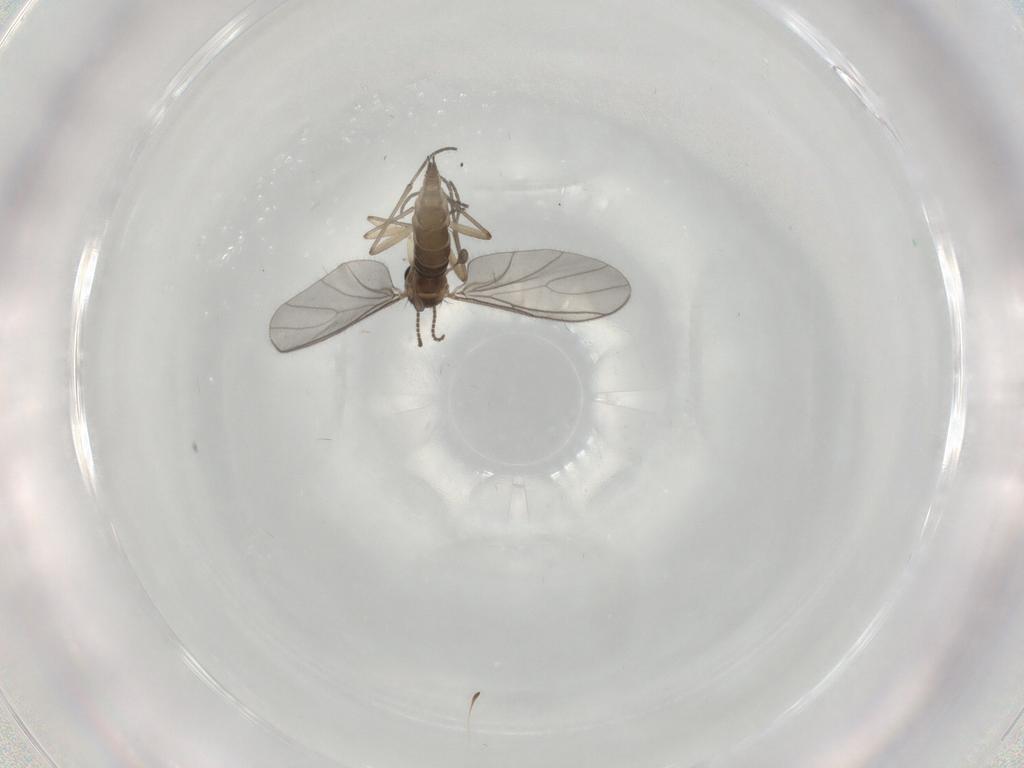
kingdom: Animalia
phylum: Arthropoda
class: Insecta
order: Diptera
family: Sciaridae
